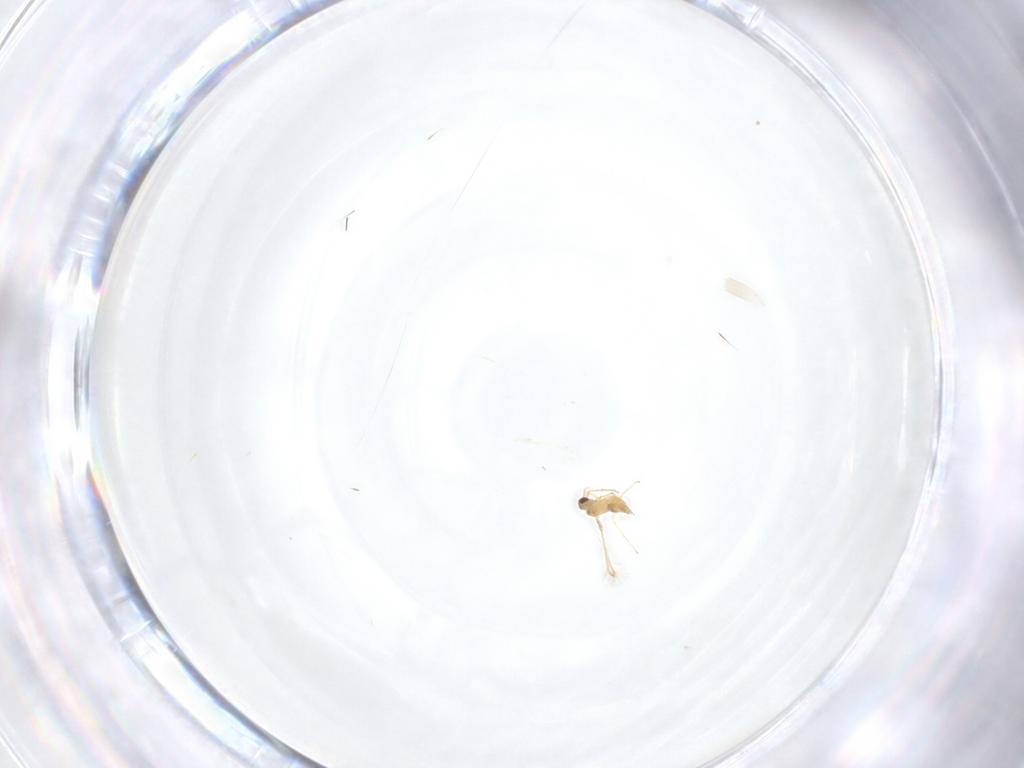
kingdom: Animalia
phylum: Arthropoda
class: Insecta
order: Hymenoptera
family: Mymaridae
